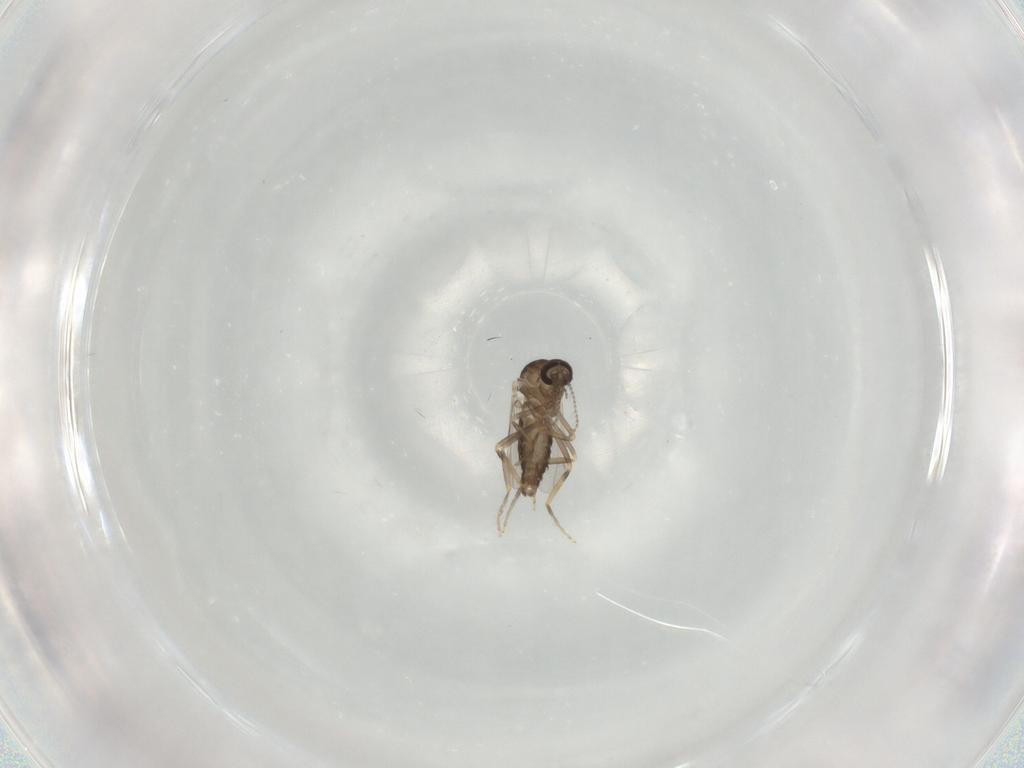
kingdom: Animalia
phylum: Arthropoda
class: Insecta
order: Diptera
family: Ceratopogonidae
